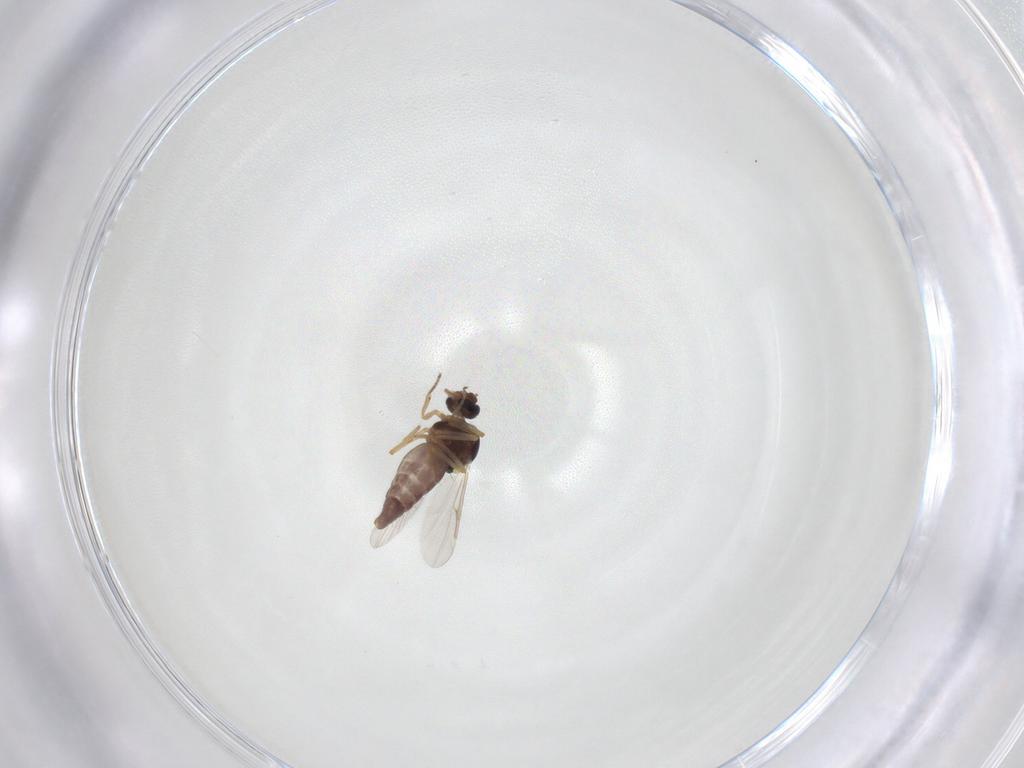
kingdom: Animalia
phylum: Arthropoda
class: Insecta
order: Diptera
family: Ceratopogonidae
